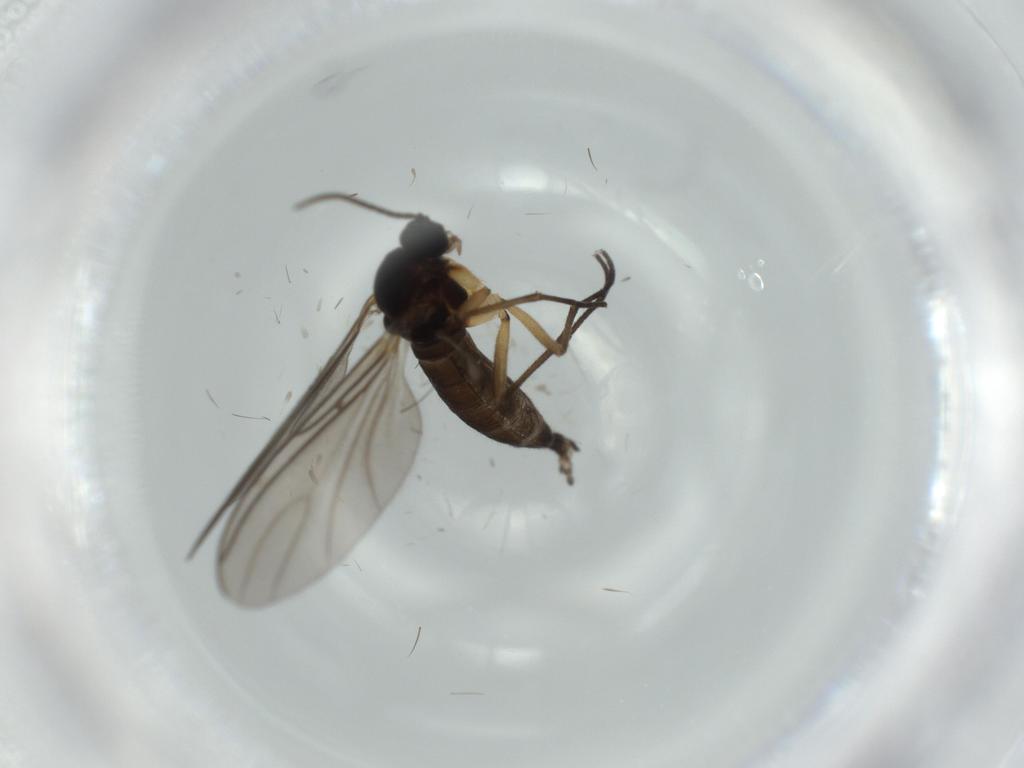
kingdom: Animalia
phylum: Arthropoda
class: Insecta
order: Diptera
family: Sciaridae
